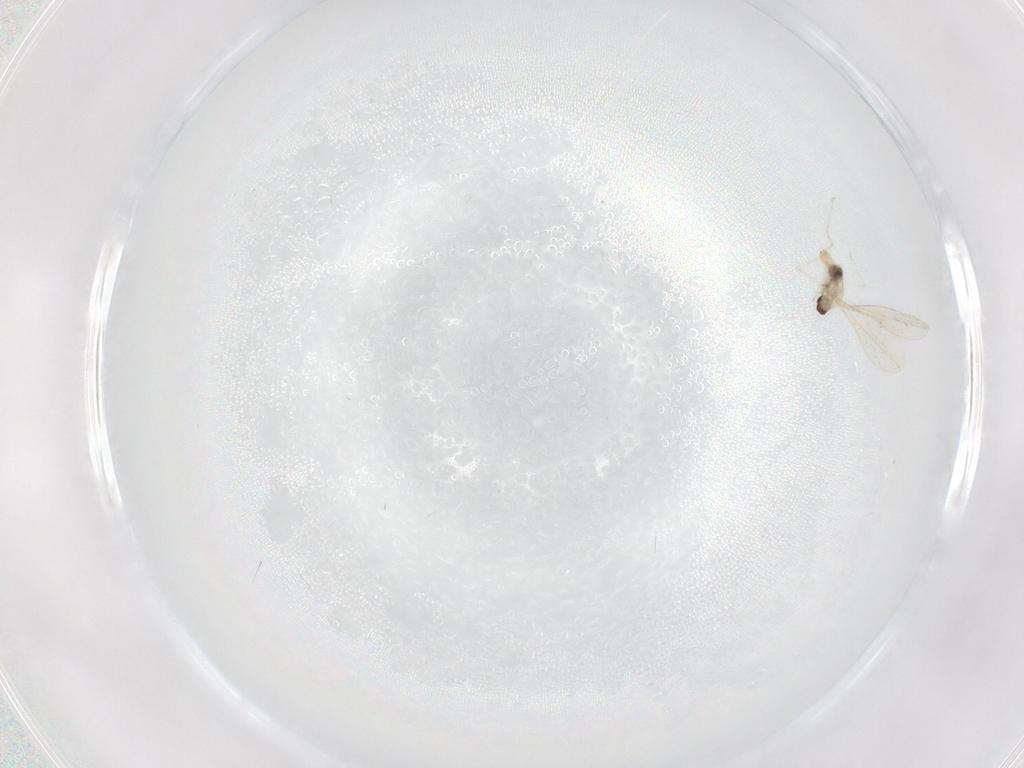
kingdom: Animalia
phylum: Arthropoda
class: Insecta
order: Diptera
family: Cecidomyiidae
